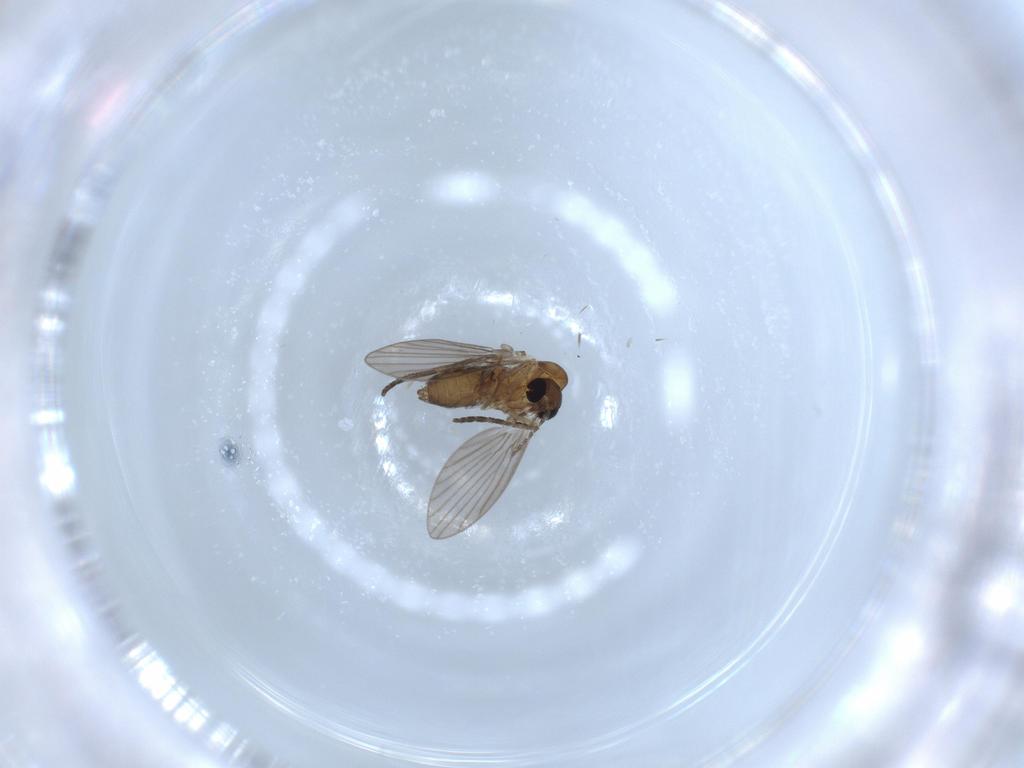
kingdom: Animalia
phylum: Arthropoda
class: Insecta
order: Diptera
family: Psychodidae
